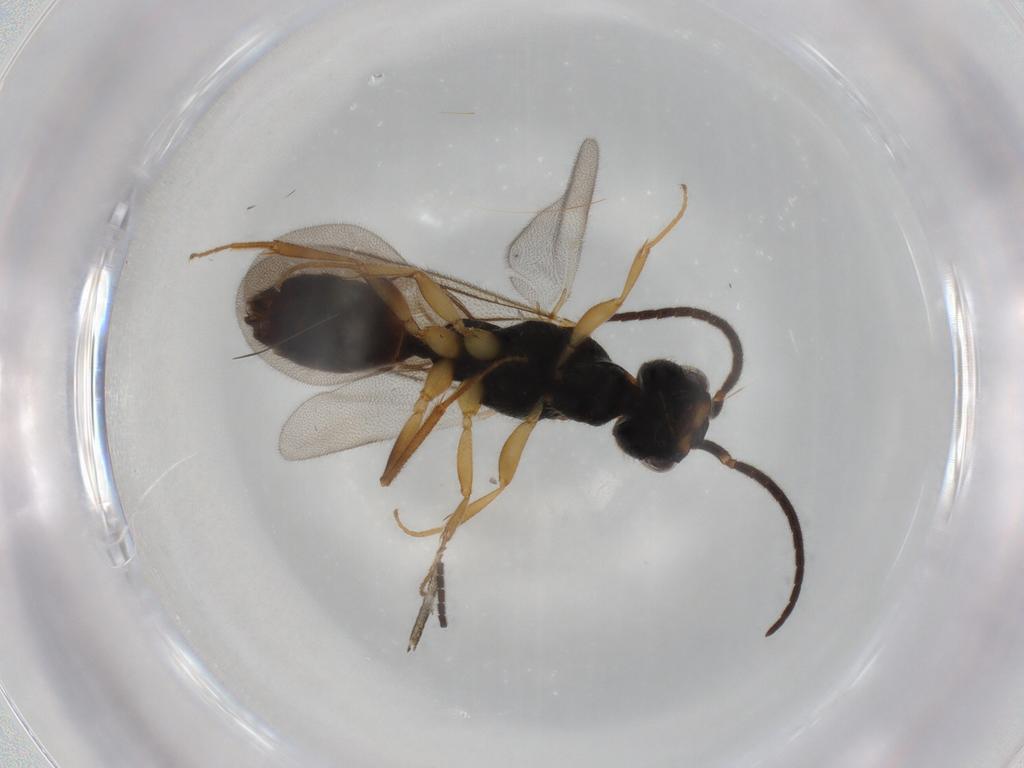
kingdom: Animalia
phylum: Arthropoda
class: Insecta
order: Hymenoptera
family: Bethylidae
